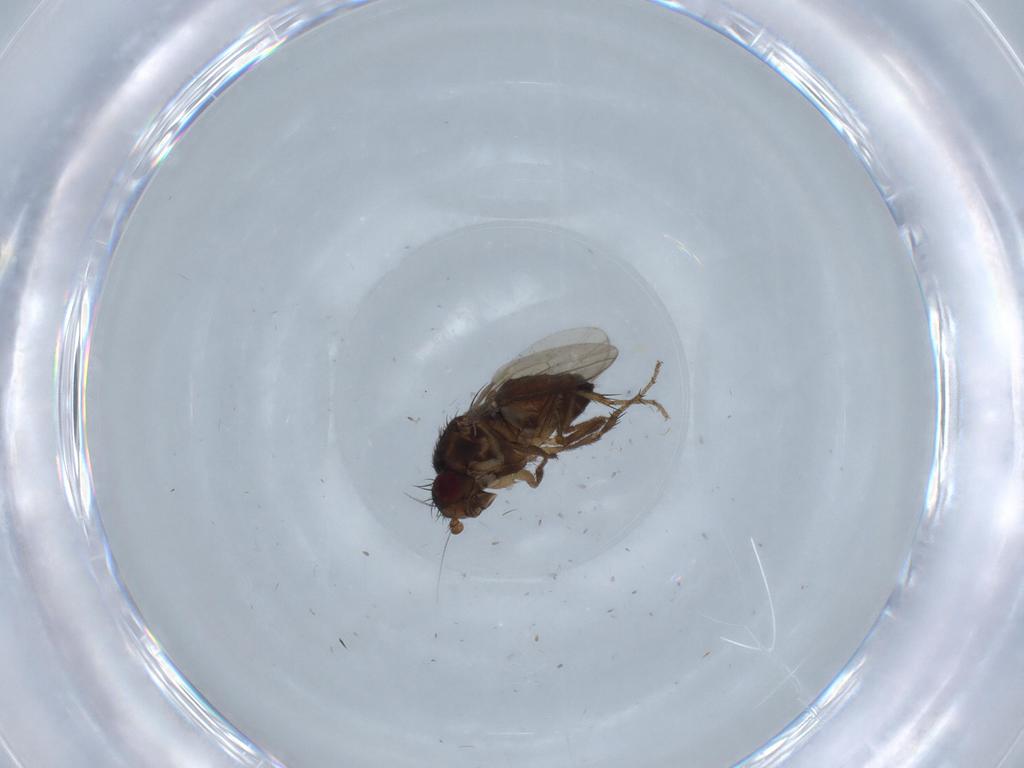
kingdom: Animalia
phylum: Arthropoda
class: Insecta
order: Diptera
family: Sphaeroceridae
